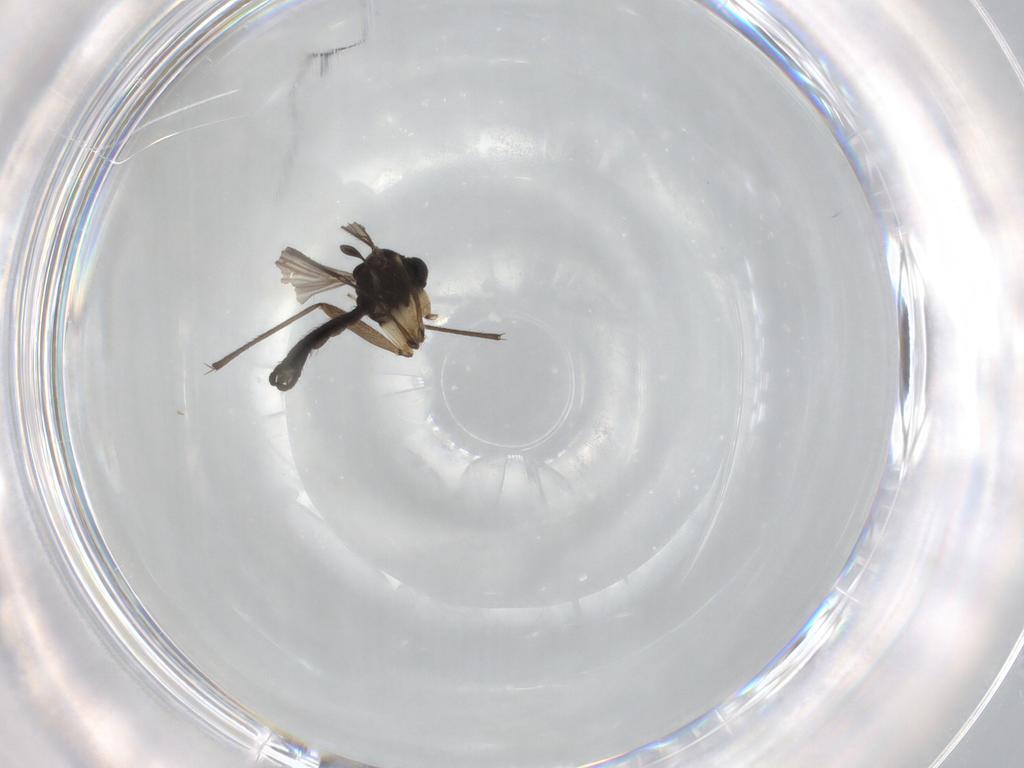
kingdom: Animalia
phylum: Arthropoda
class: Insecta
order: Diptera
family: Sciaridae
